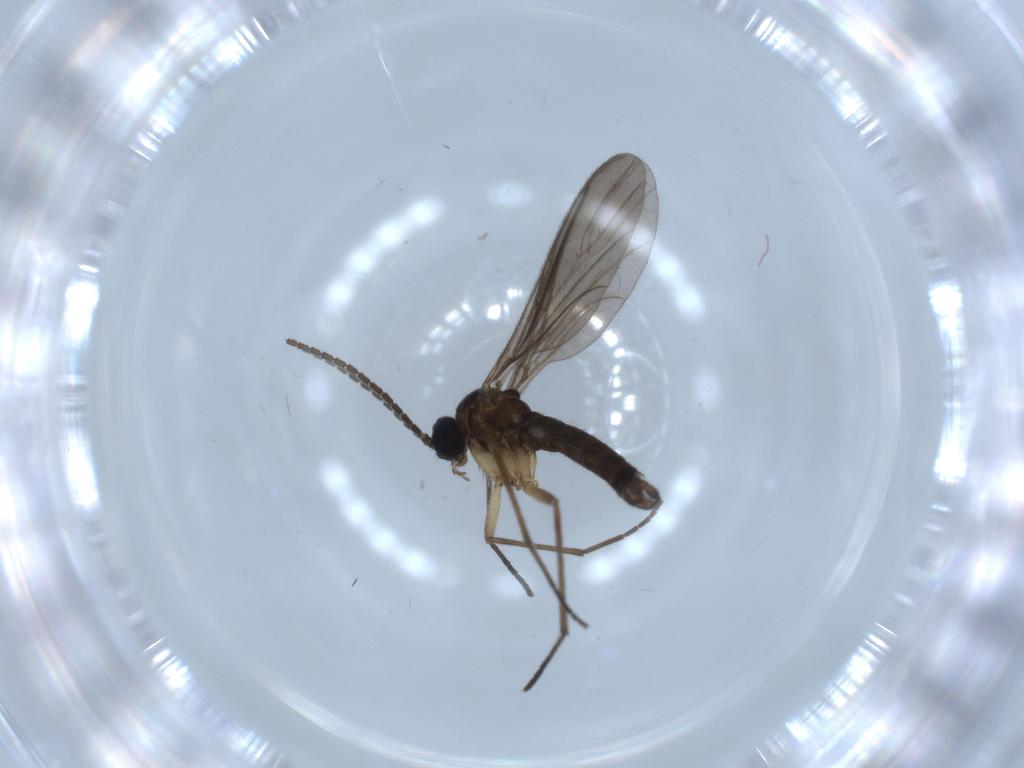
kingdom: Animalia
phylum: Arthropoda
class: Insecta
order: Diptera
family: Sciaridae
